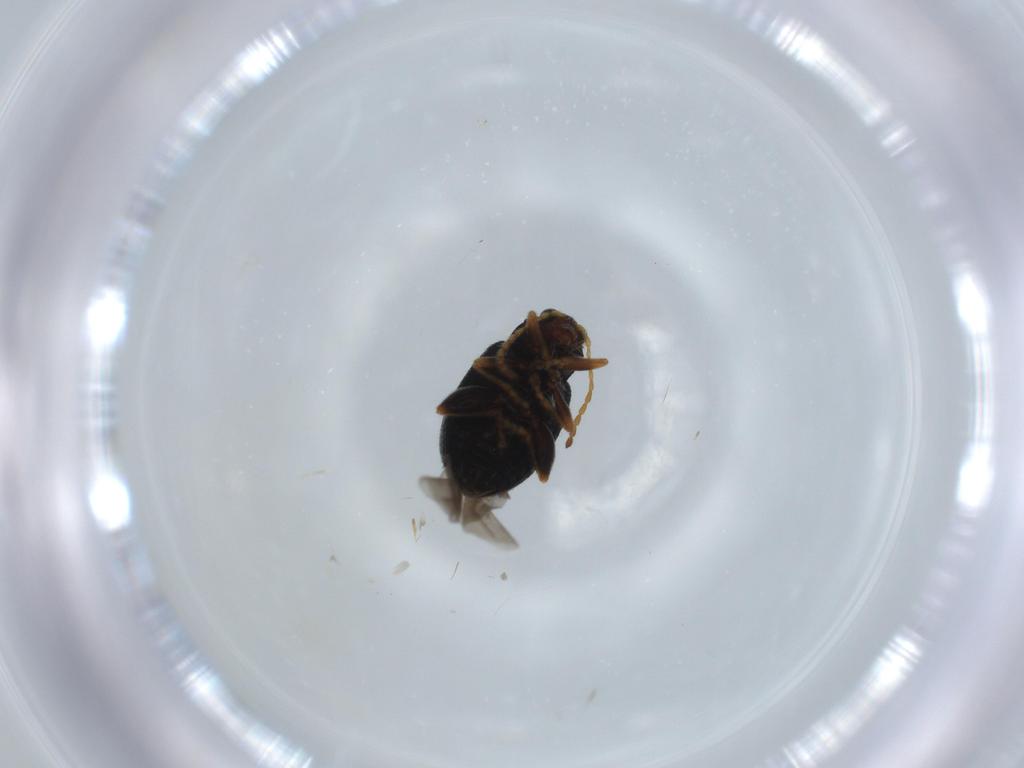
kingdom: Animalia
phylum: Arthropoda
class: Insecta
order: Coleoptera
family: Chrysomelidae
